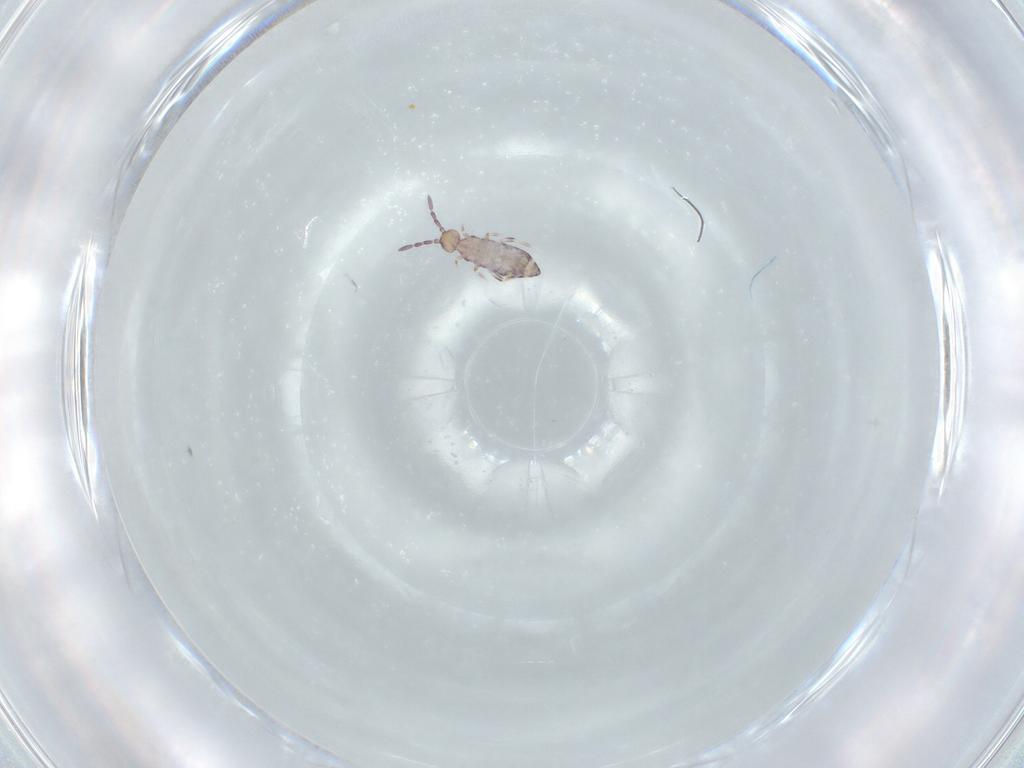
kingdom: Animalia
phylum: Arthropoda
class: Collembola
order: Entomobryomorpha
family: Entomobryidae
